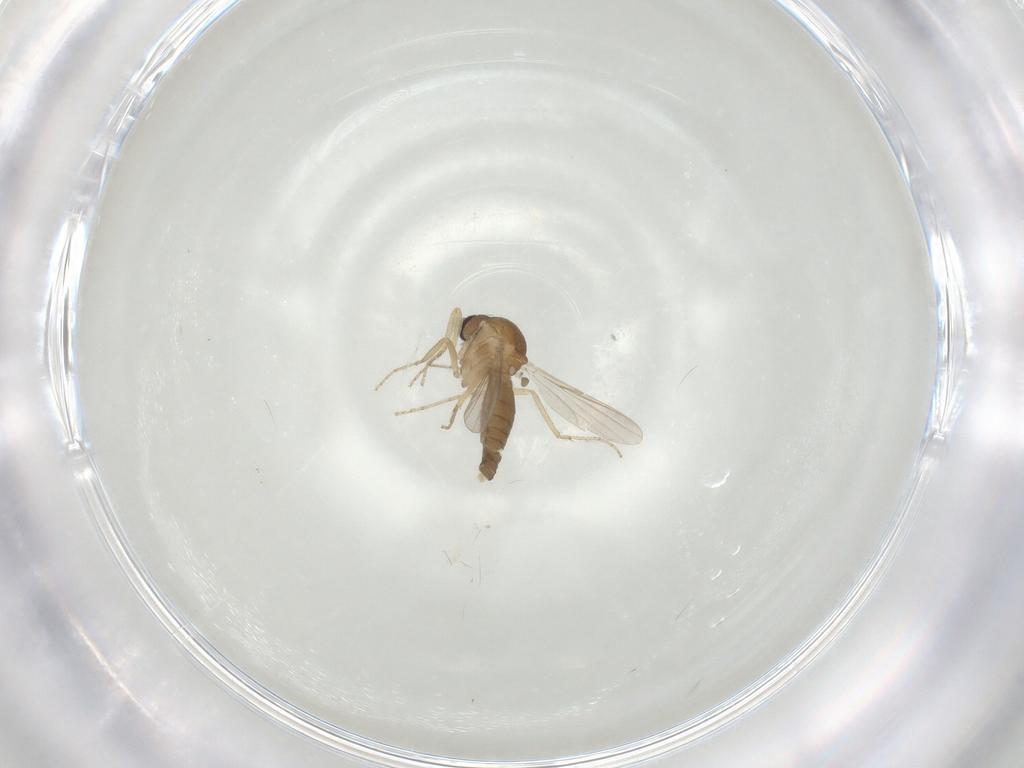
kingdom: Animalia
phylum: Arthropoda
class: Insecta
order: Diptera
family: Ceratopogonidae
